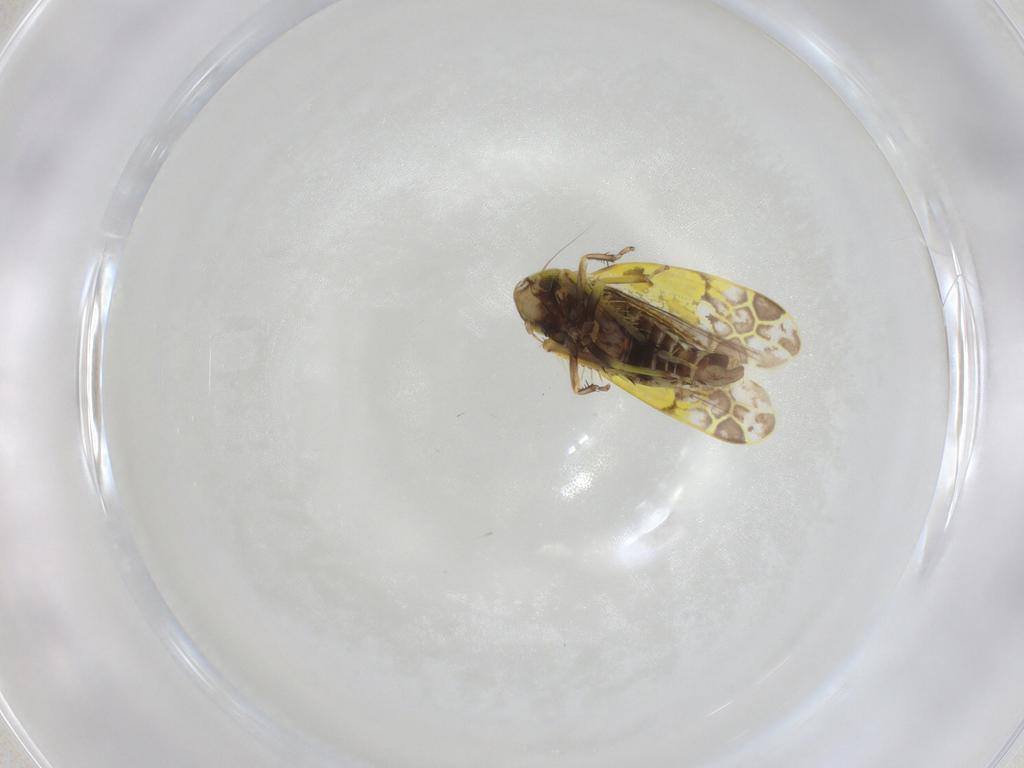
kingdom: Animalia
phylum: Arthropoda
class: Insecta
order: Hemiptera
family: Cicadellidae
